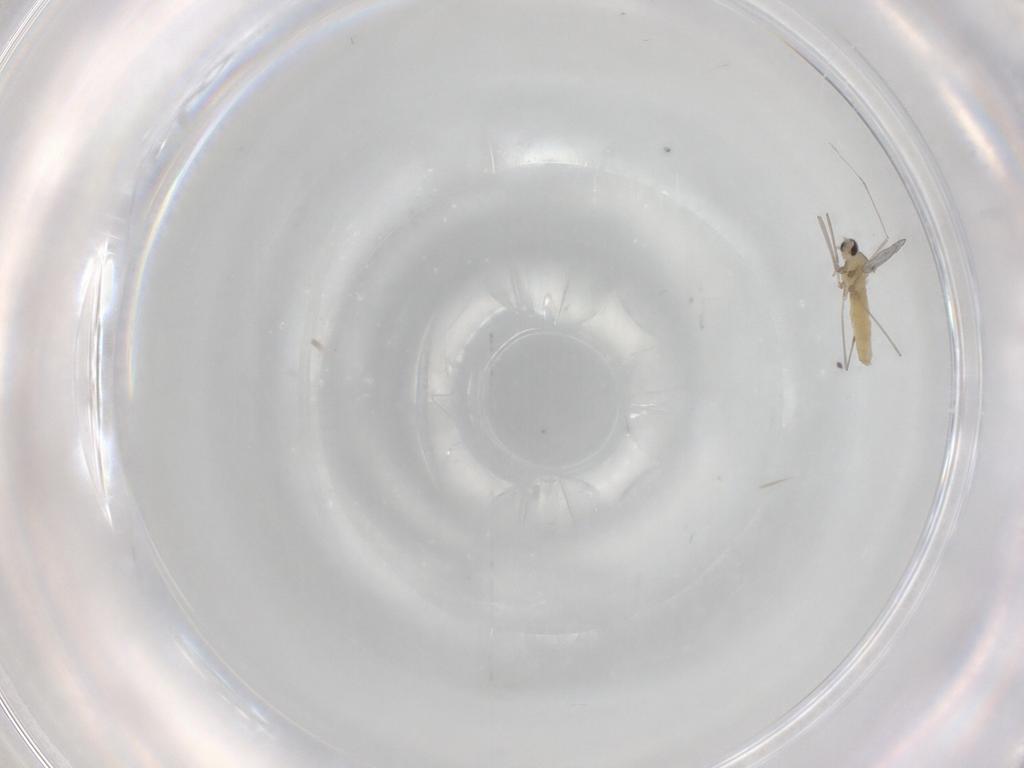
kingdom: Animalia
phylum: Arthropoda
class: Insecta
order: Diptera
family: Cecidomyiidae
